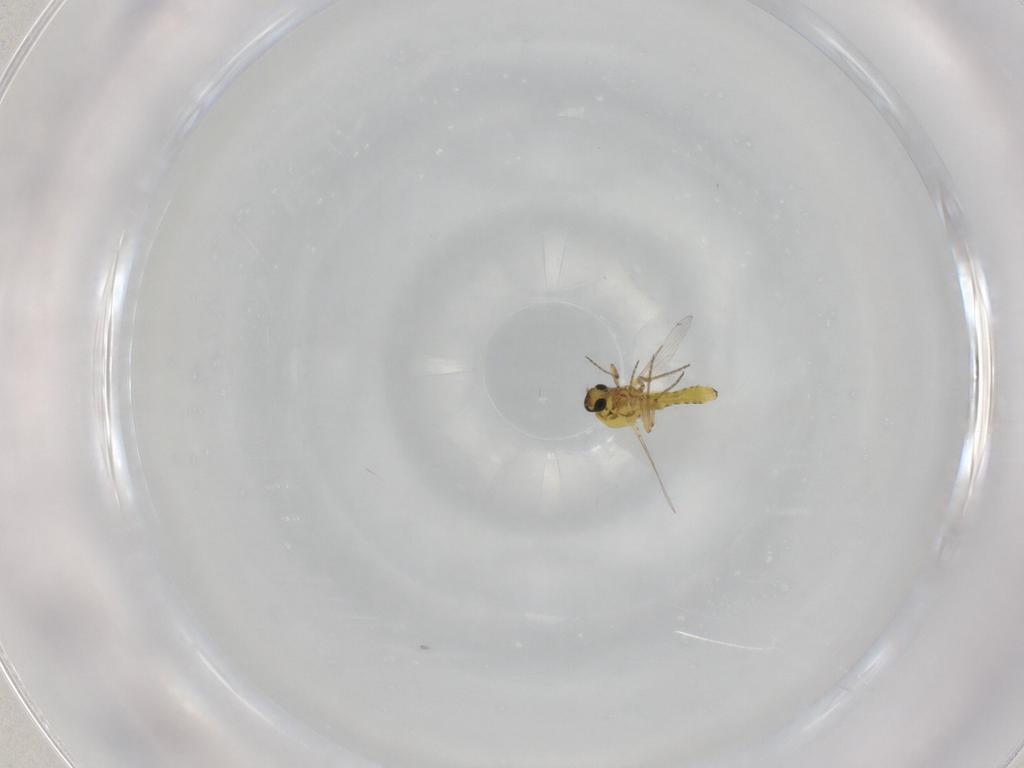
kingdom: Animalia
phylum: Arthropoda
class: Insecta
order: Diptera
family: Ceratopogonidae
